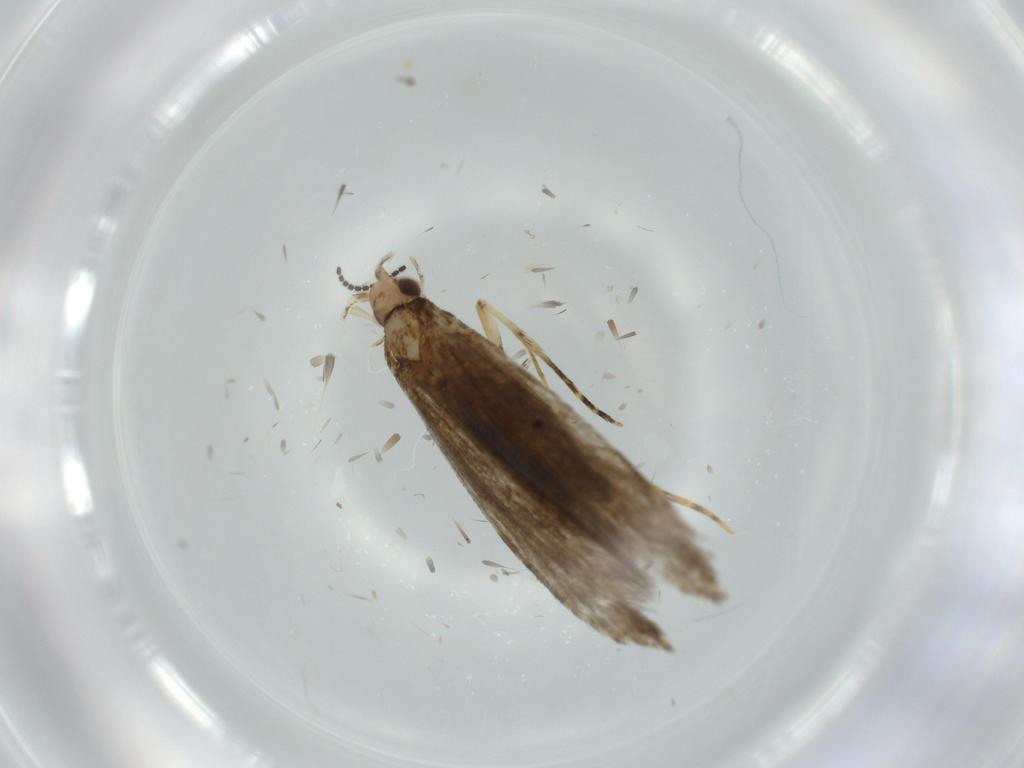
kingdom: Animalia
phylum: Arthropoda
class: Insecta
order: Lepidoptera
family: Meessiidae
